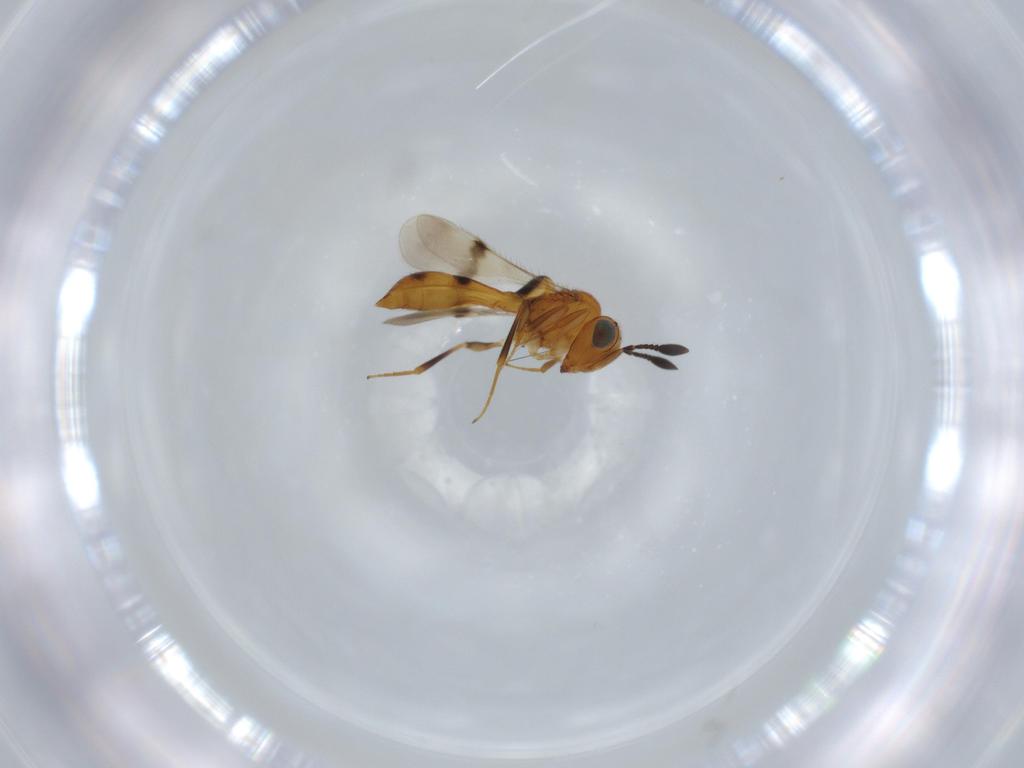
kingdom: Animalia
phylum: Arthropoda
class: Insecta
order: Hymenoptera
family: Scelionidae
